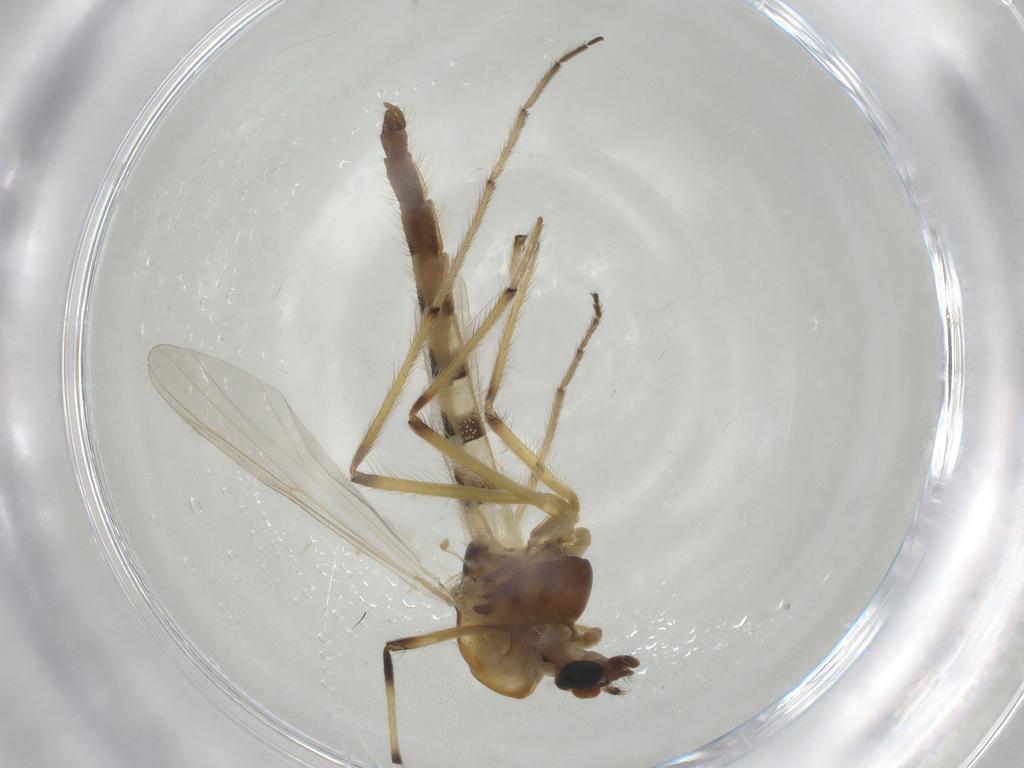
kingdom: Animalia
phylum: Arthropoda
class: Insecta
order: Diptera
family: Chironomidae
